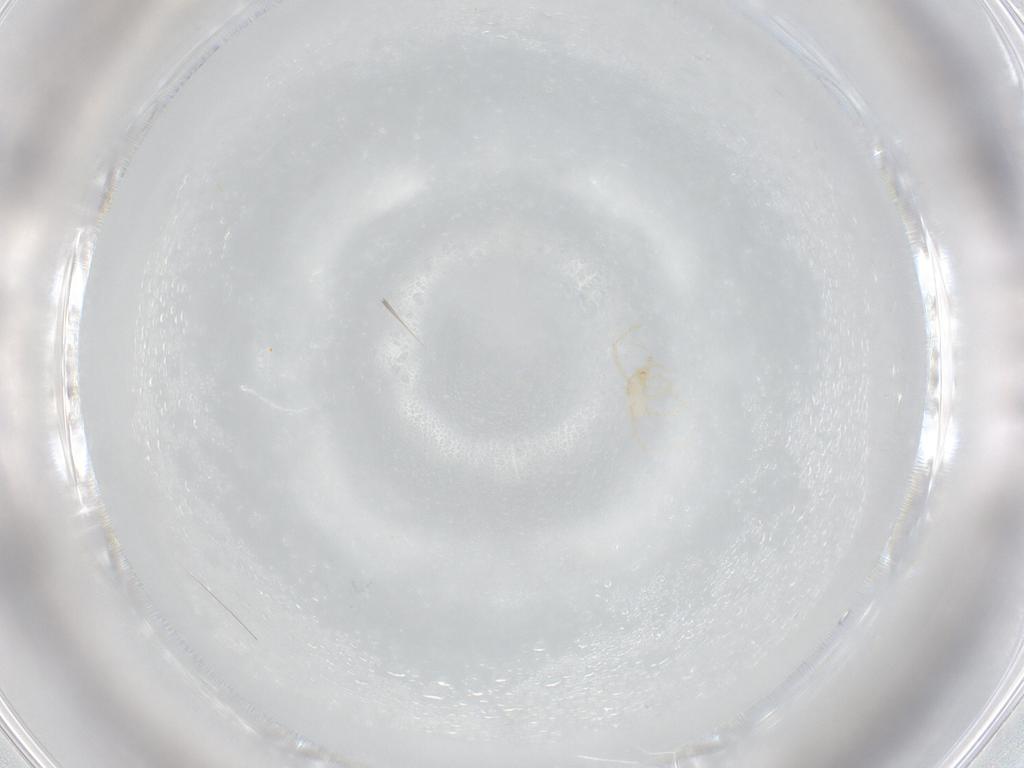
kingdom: Animalia
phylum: Arthropoda
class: Arachnida
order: Trombidiformes
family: Erythraeidae
